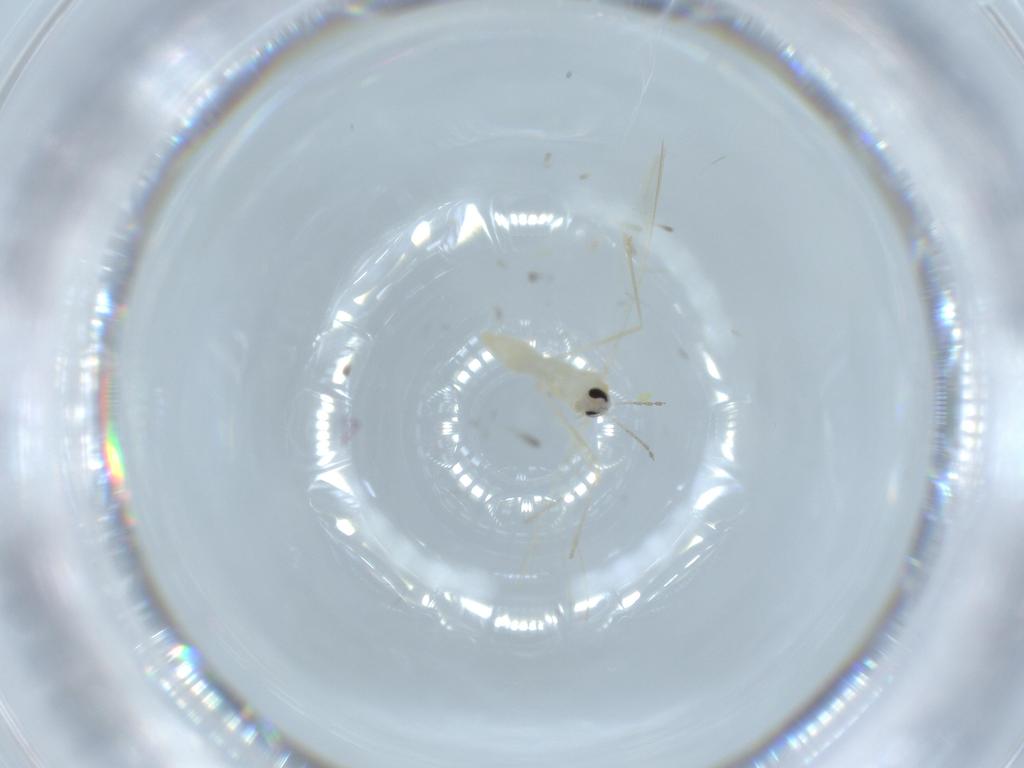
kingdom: Animalia
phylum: Arthropoda
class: Insecta
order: Diptera
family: Cecidomyiidae
